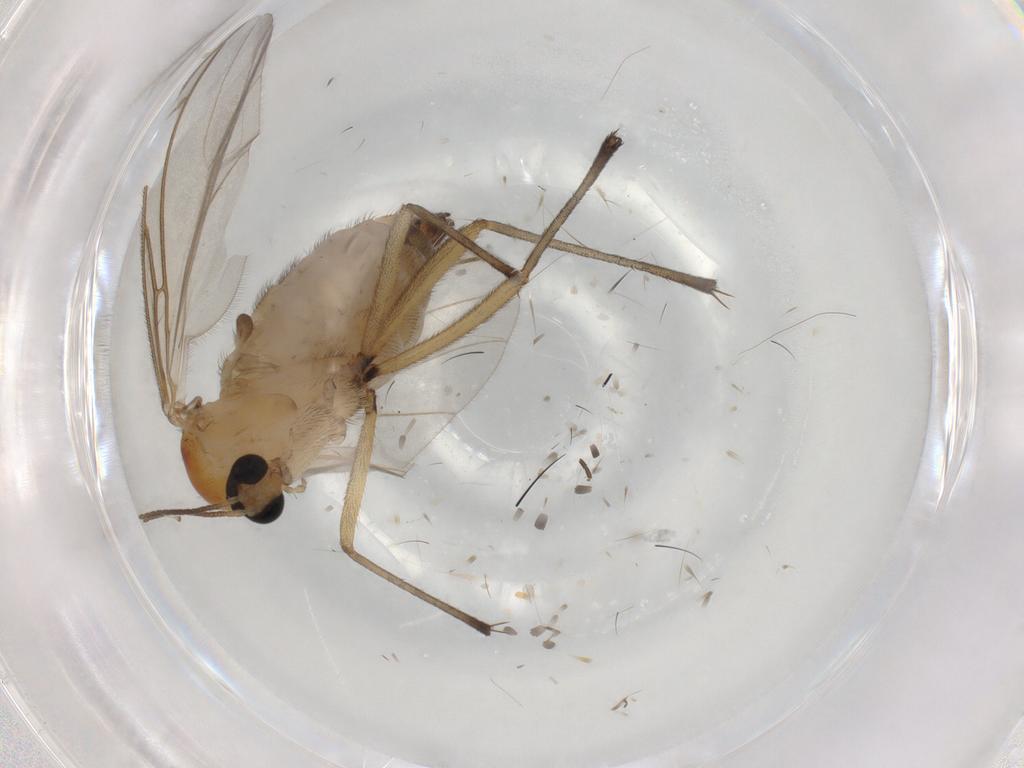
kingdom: Animalia
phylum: Arthropoda
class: Insecta
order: Diptera
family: Sciaridae
